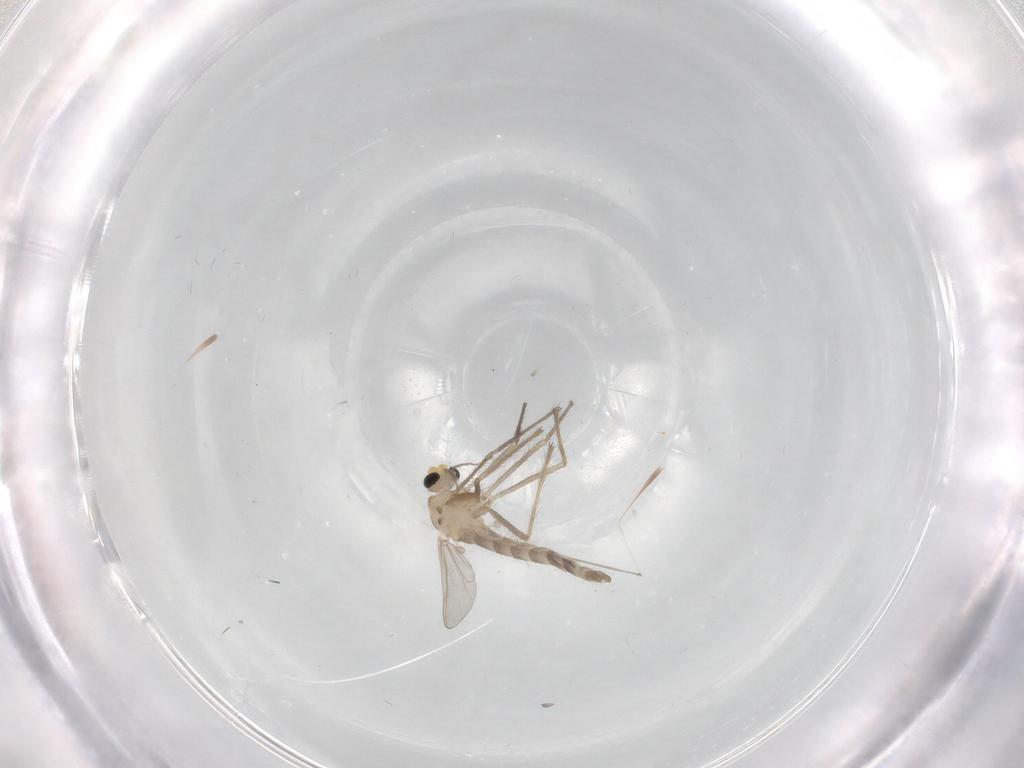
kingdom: Animalia
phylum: Arthropoda
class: Insecta
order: Diptera
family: Chironomidae
